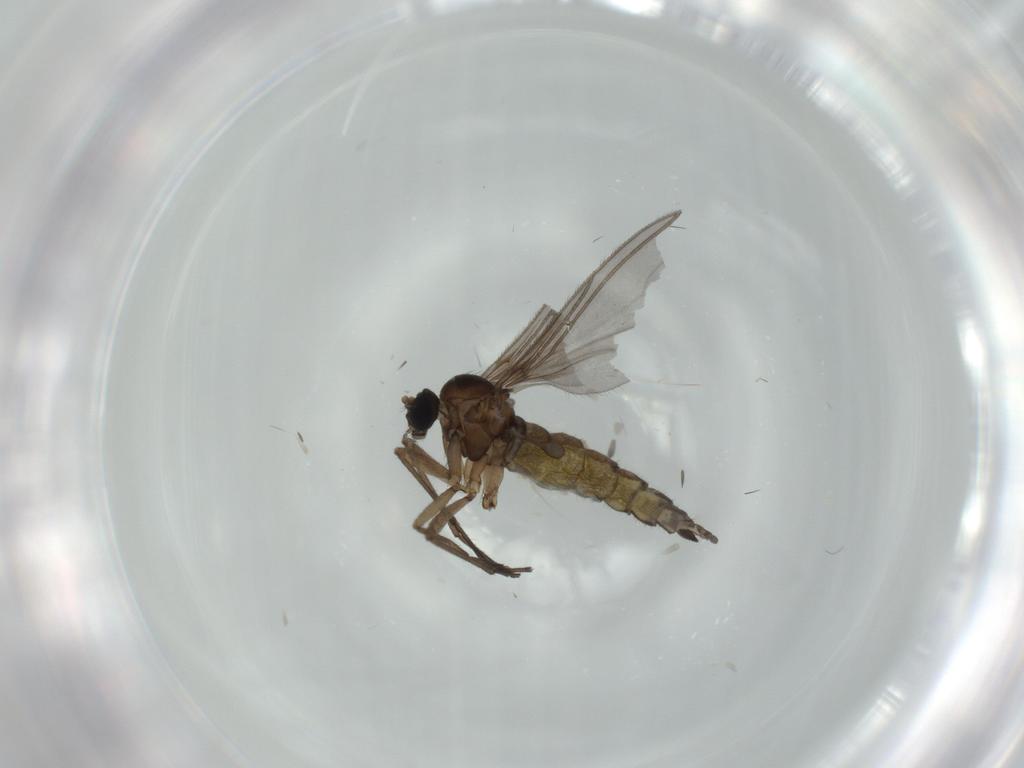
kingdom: Animalia
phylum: Arthropoda
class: Insecta
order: Diptera
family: Sciaridae
